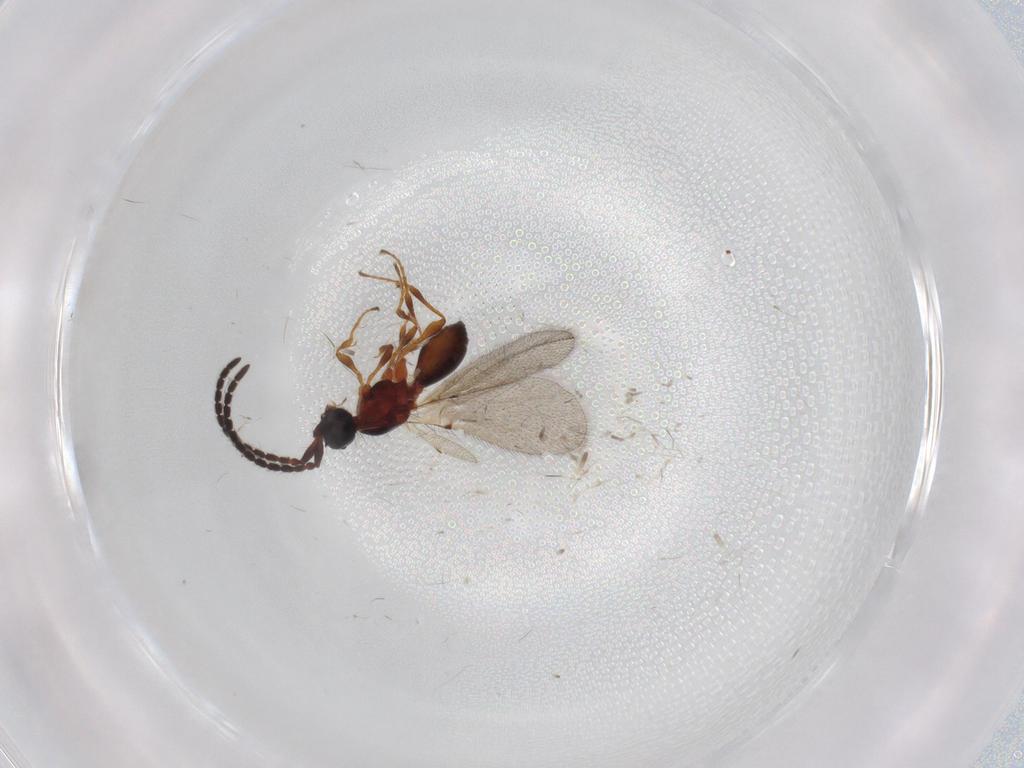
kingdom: Animalia
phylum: Arthropoda
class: Insecta
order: Hymenoptera
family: Diapriidae
